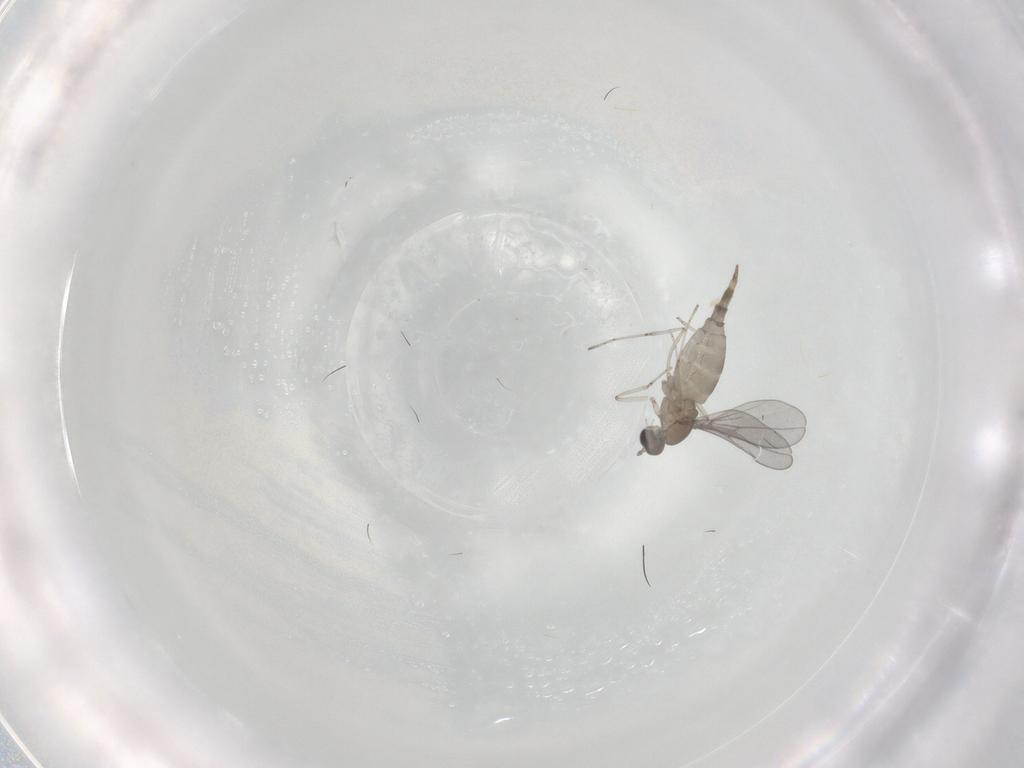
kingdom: Animalia
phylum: Arthropoda
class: Insecta
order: Diptera
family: Cecidomyiidae
